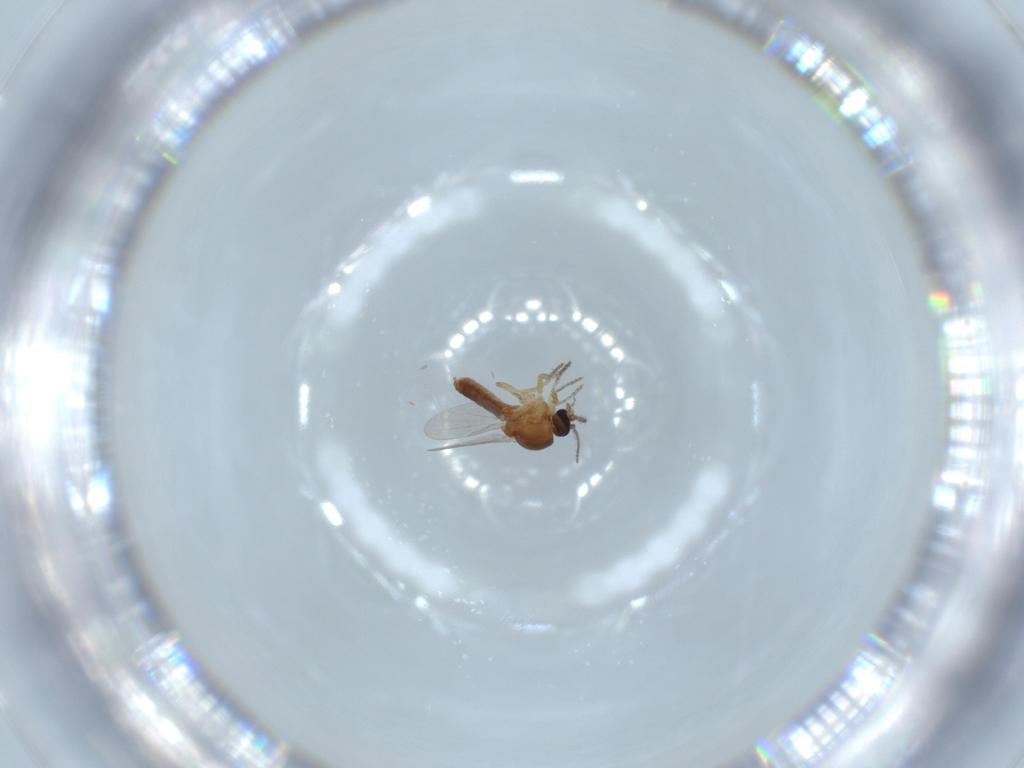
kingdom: Animalia
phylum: Arthropoda
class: Insecta
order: Diptera
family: Ceratopogonidae
